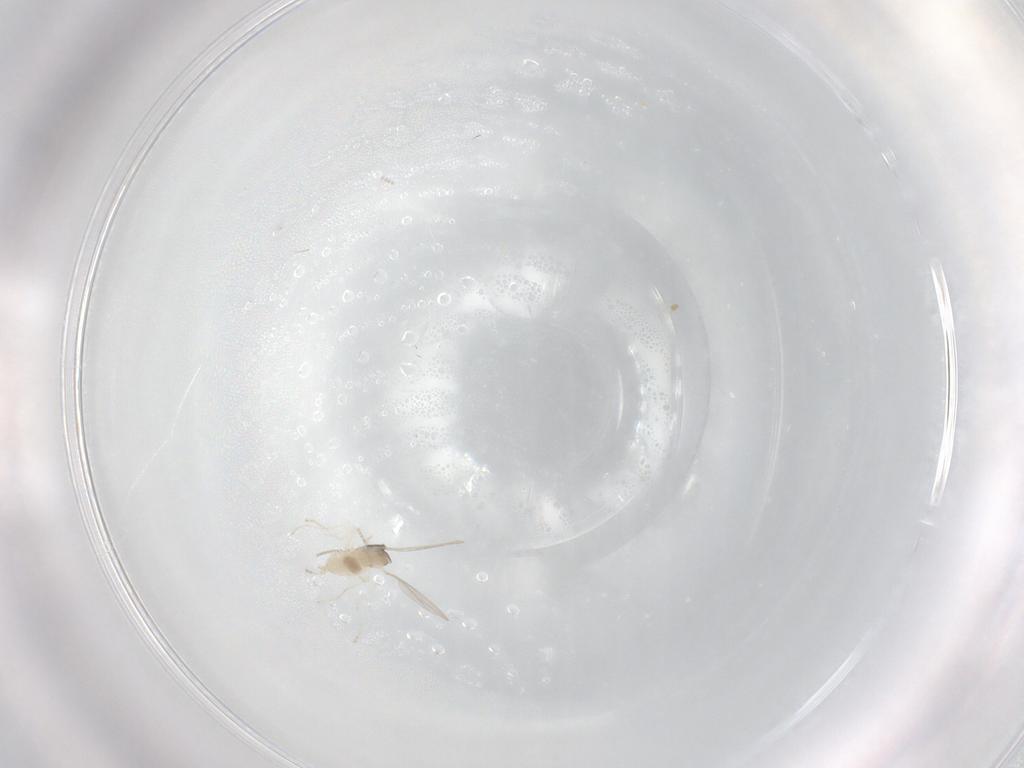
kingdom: Animalia
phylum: Arthropoda
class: Insecta
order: Diptera
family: Cecidomyiidae
